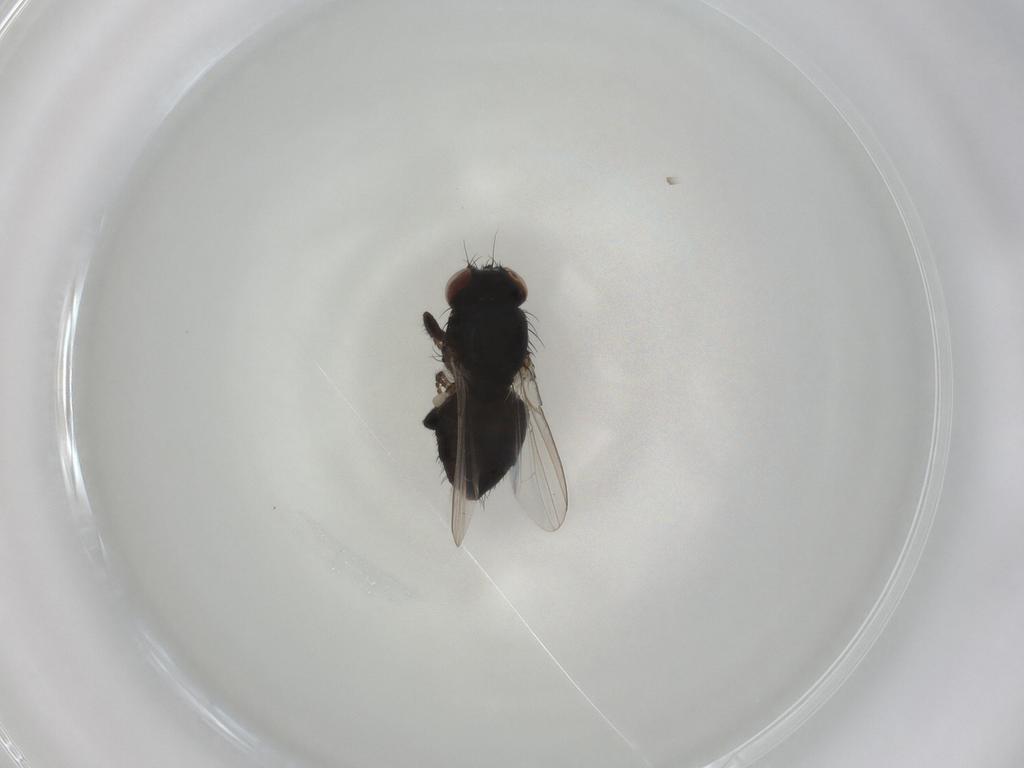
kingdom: Animalia
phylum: Arthropoda
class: Insecta
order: Diptera
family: Milichiidae
